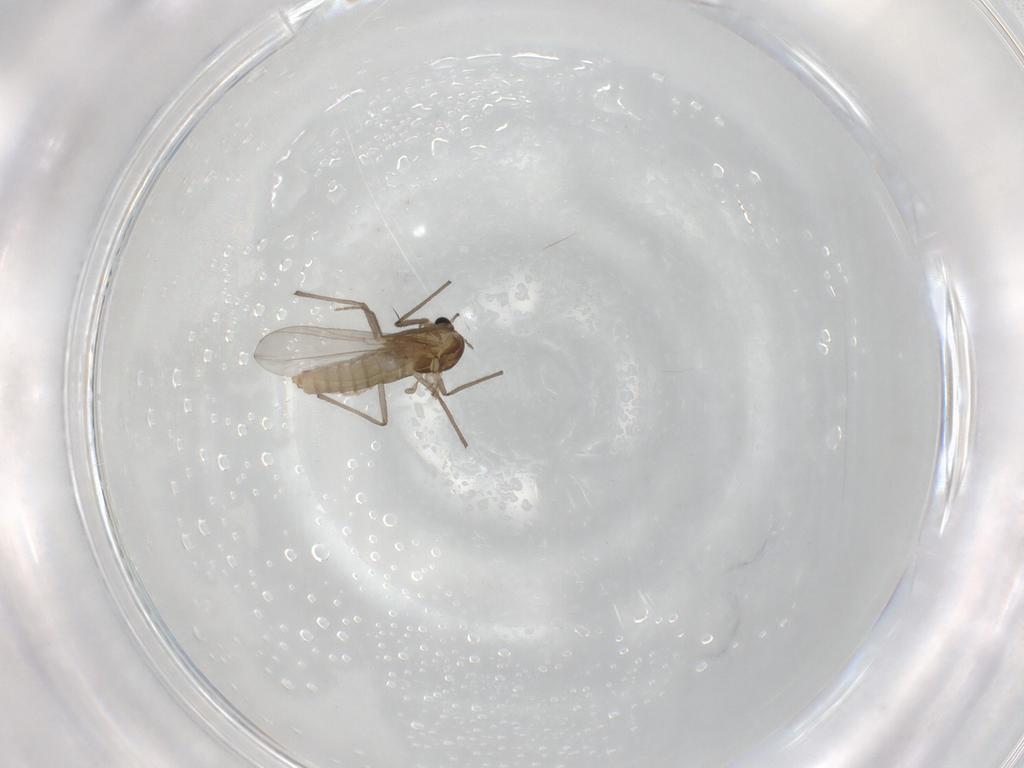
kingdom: Animalia
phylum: Arthropoda
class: Insecta
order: Diptera
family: Chironomidae
